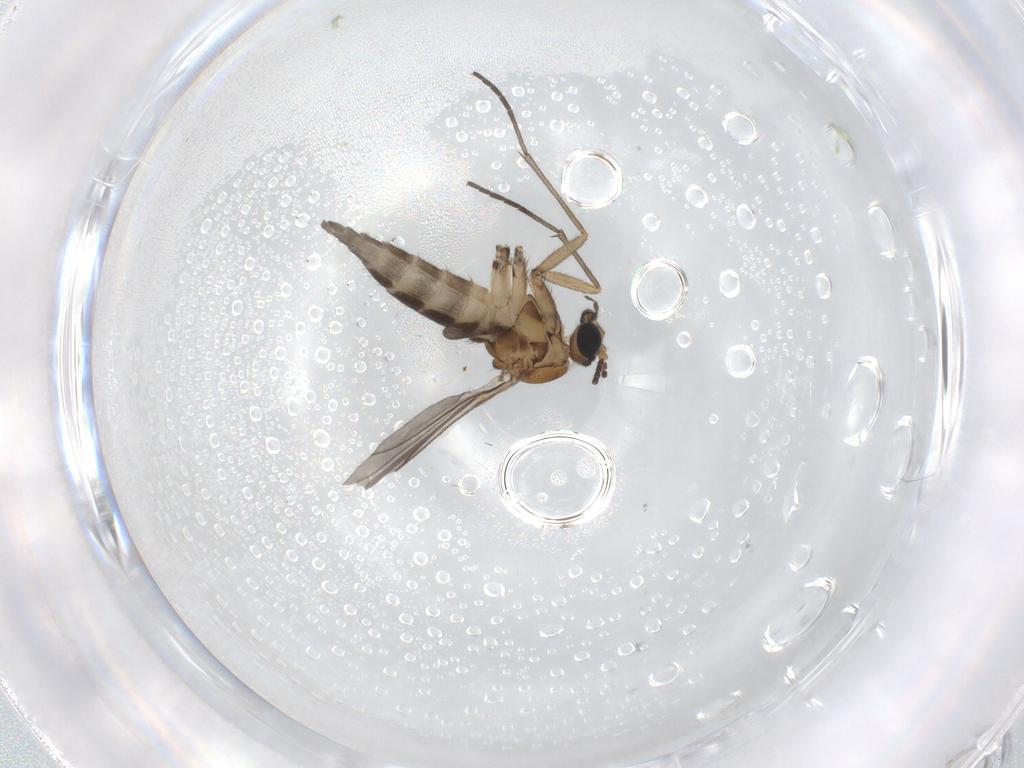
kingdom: Animalia
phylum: Arthropoda
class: Insecta
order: Diptera
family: Sciaridae
